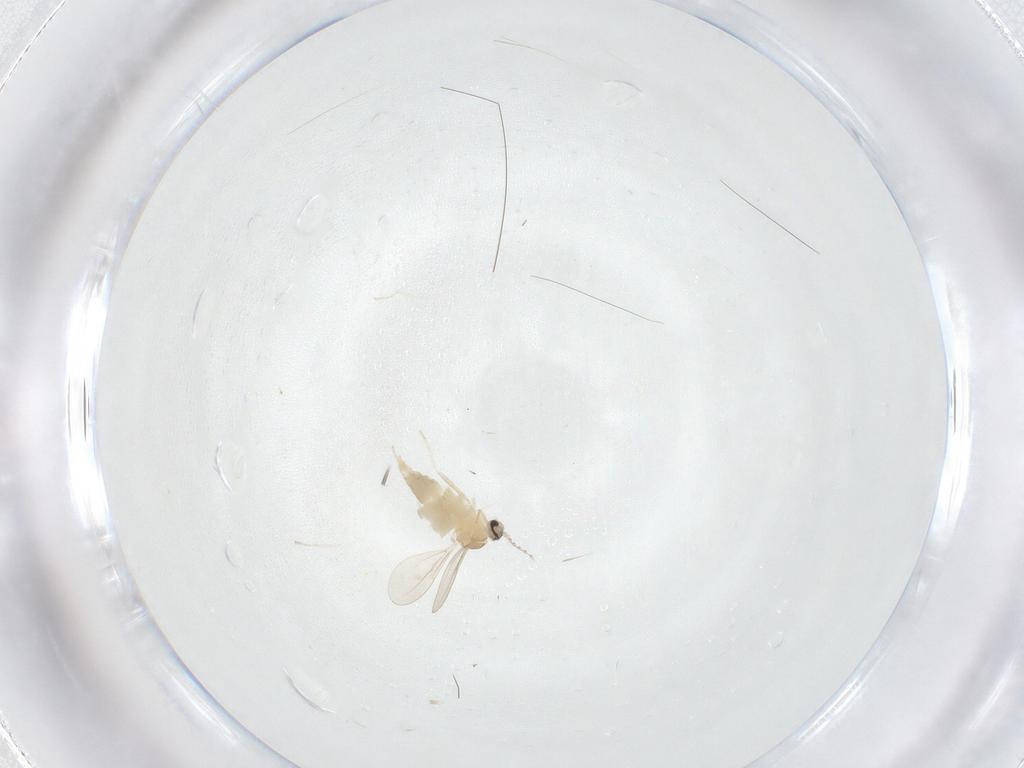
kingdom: Animalia
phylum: Arthropoda
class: Insecta
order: Diptera
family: Cecidomyiidae
